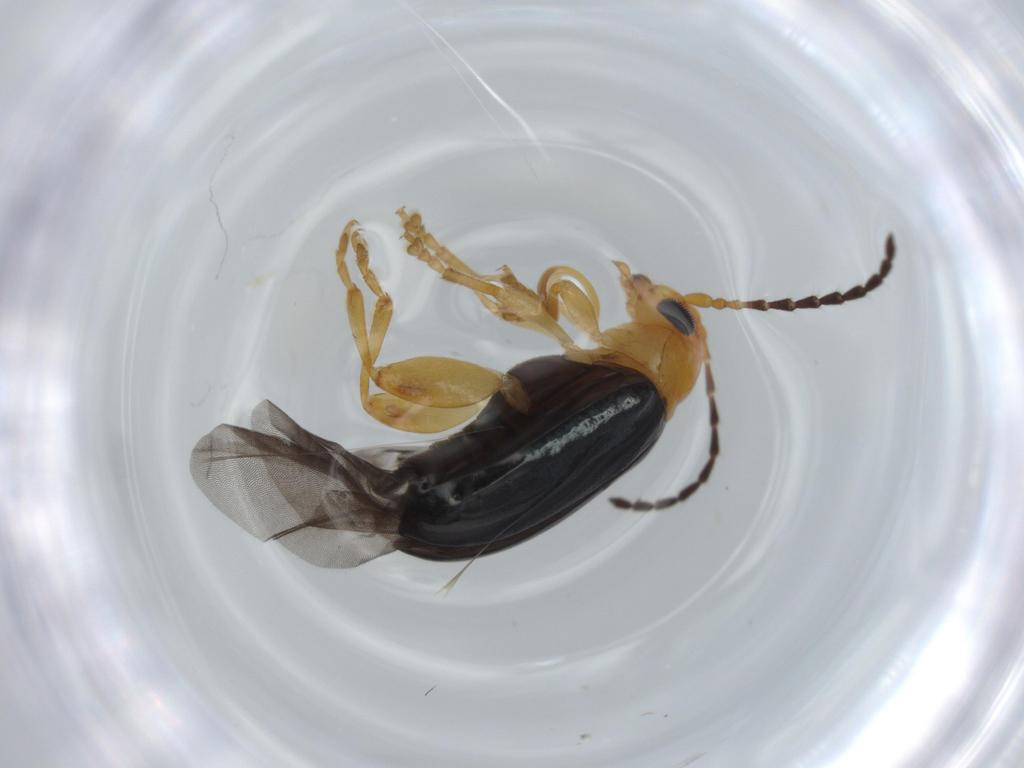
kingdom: Animalia
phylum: Arthropoda
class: Insecta
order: Coleoptera
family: Chrysomelidae
